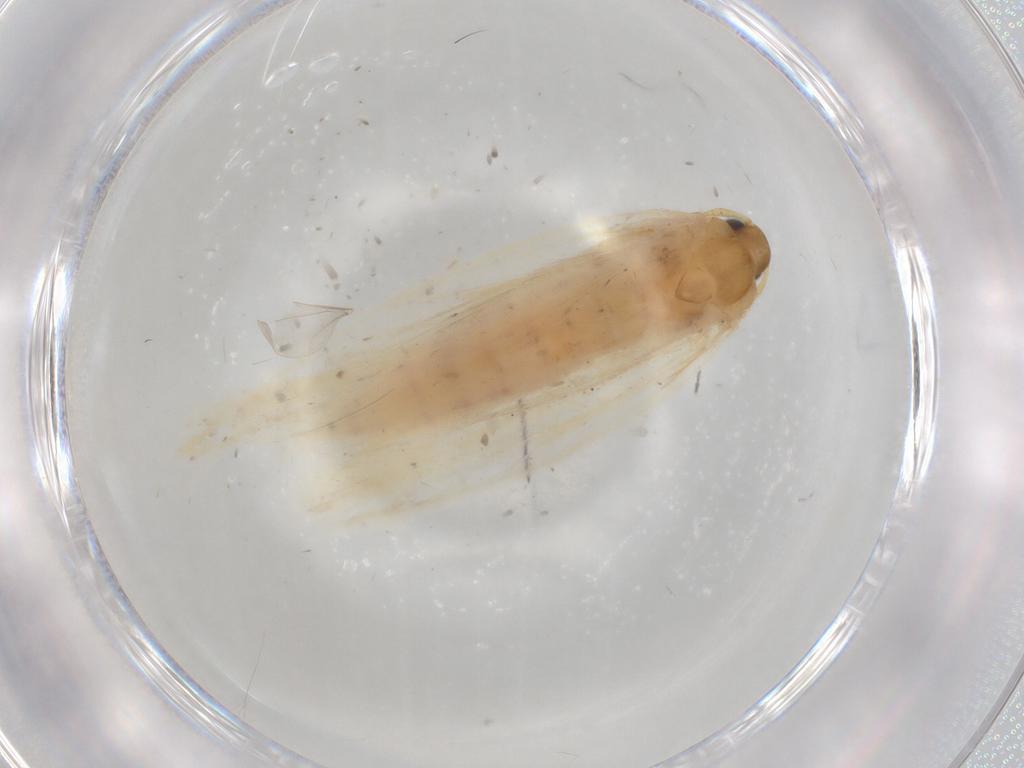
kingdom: Animalia
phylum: Arthropoda
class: Insecta
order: Lepidoptera
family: Gelechiidae
